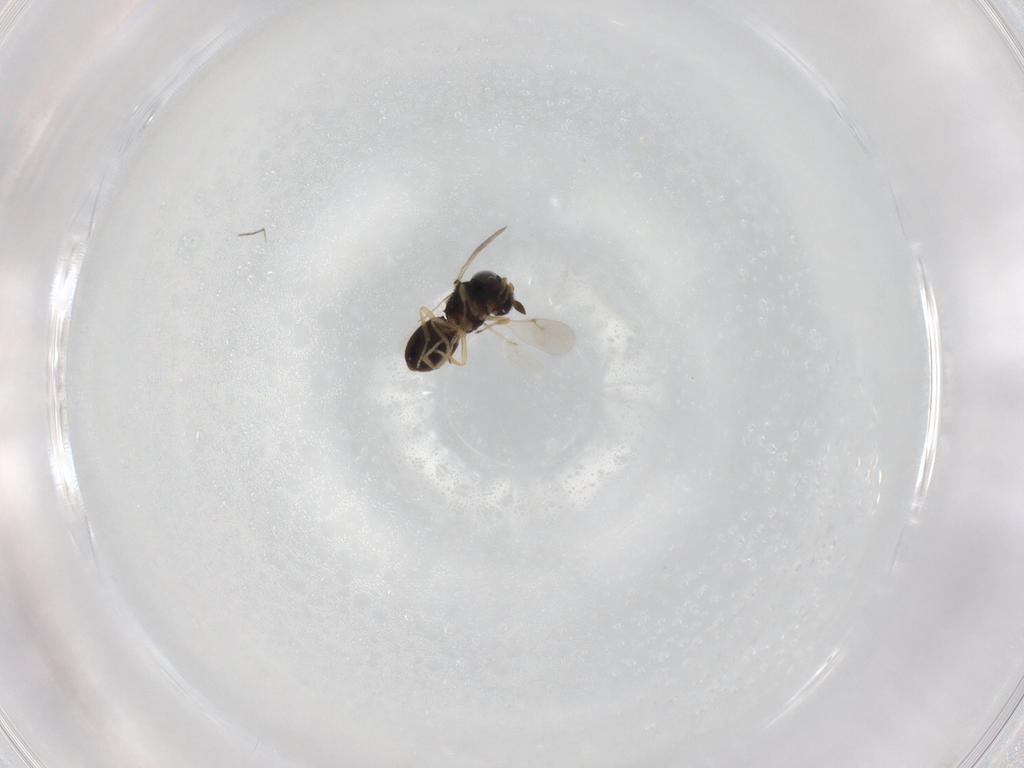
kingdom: Animalia
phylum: Arthropoda
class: Insecta
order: Hymenoptera
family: Scelionidae
